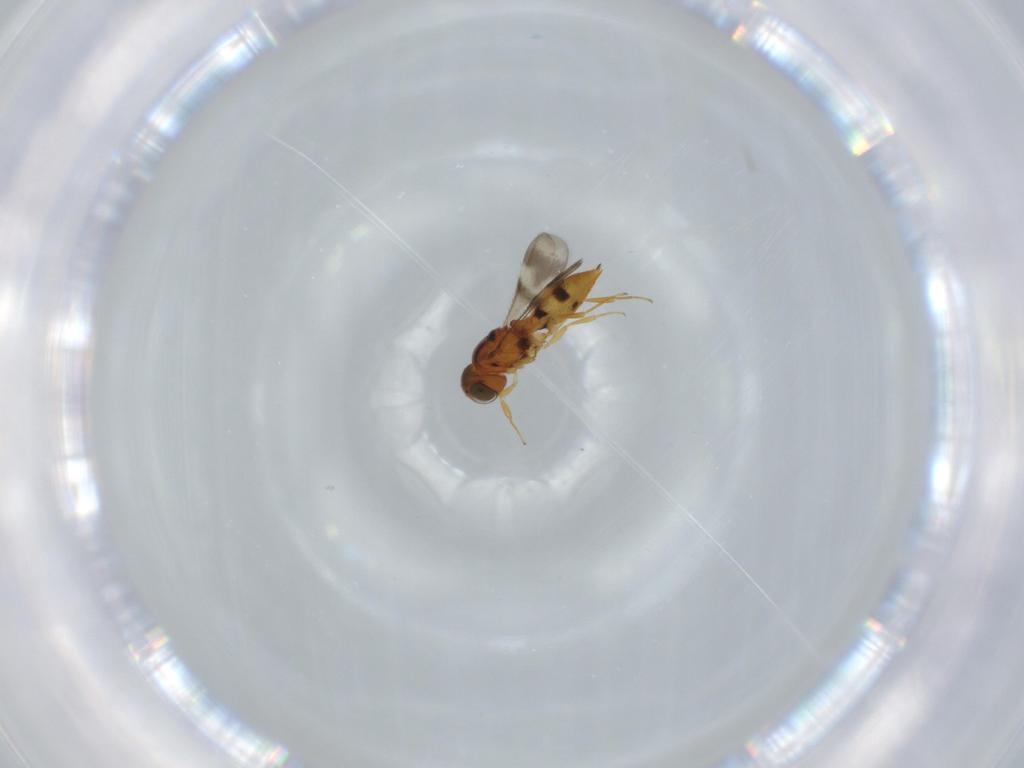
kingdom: Animalia
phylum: Arthropoda
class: Insecta
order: Hymenoptera
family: Scelionidae
